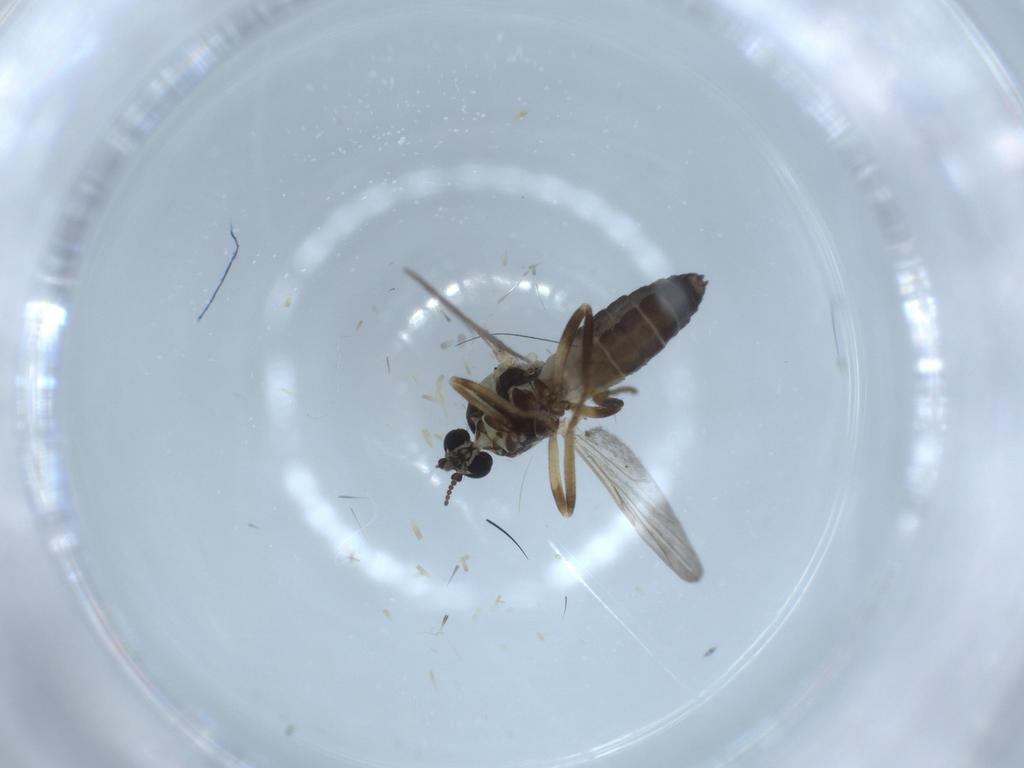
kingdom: Animalia
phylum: Arthropoda
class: Insecta
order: Diptera
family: Ceratopogonidae
